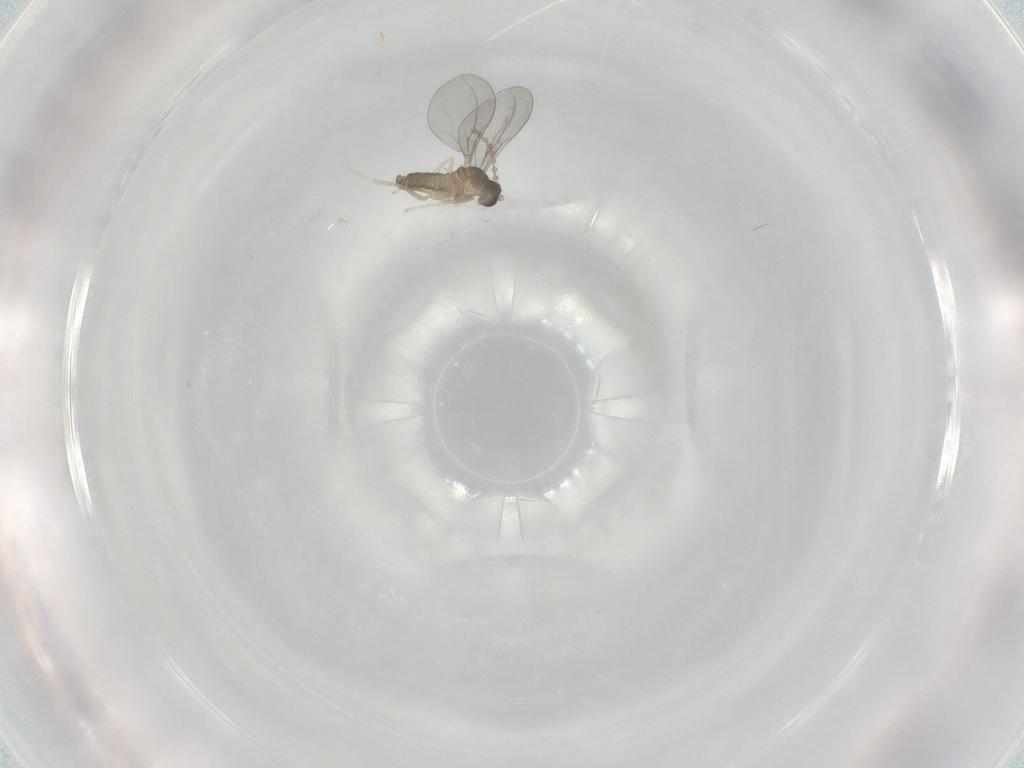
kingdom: Animalia
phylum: Arthropoda
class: Insecta
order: Diptera
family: Cecidomyiidae
